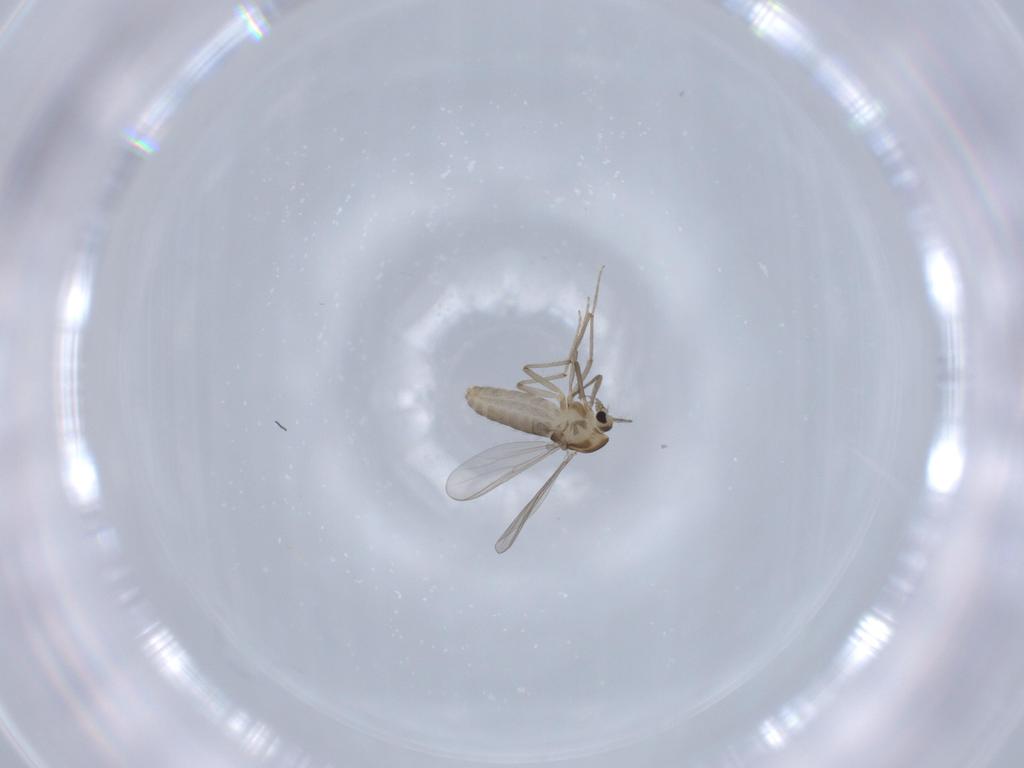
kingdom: Animalia
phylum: Arthropoda
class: Insecta
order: Diptera
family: Chironomidae
